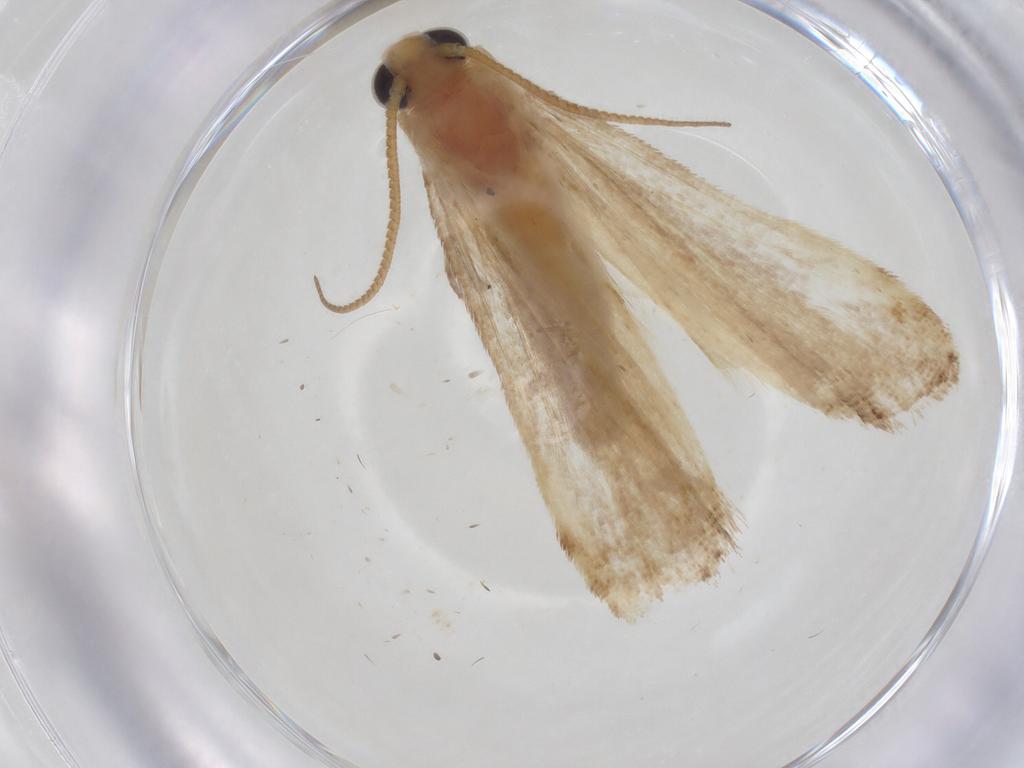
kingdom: Animalia
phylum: Arthropoda
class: Insecta
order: Lepidoptera
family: Pyralidae
